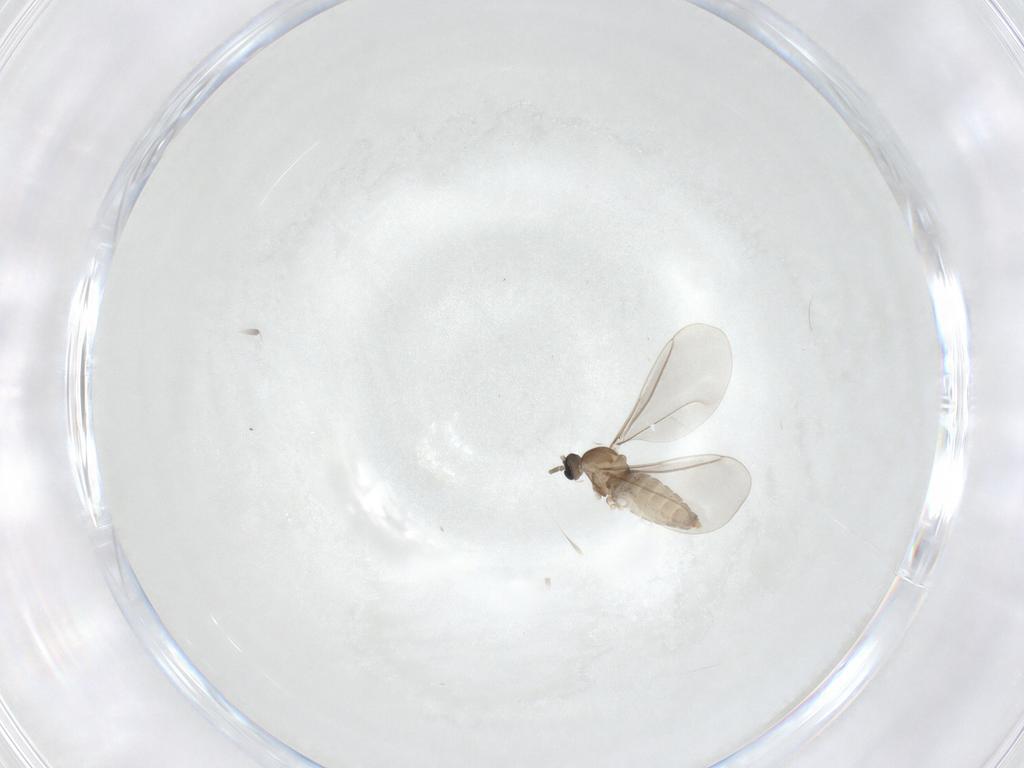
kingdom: Animalia
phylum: Arthropoda
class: Insecta
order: Diptera
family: Cecidomyiidae
